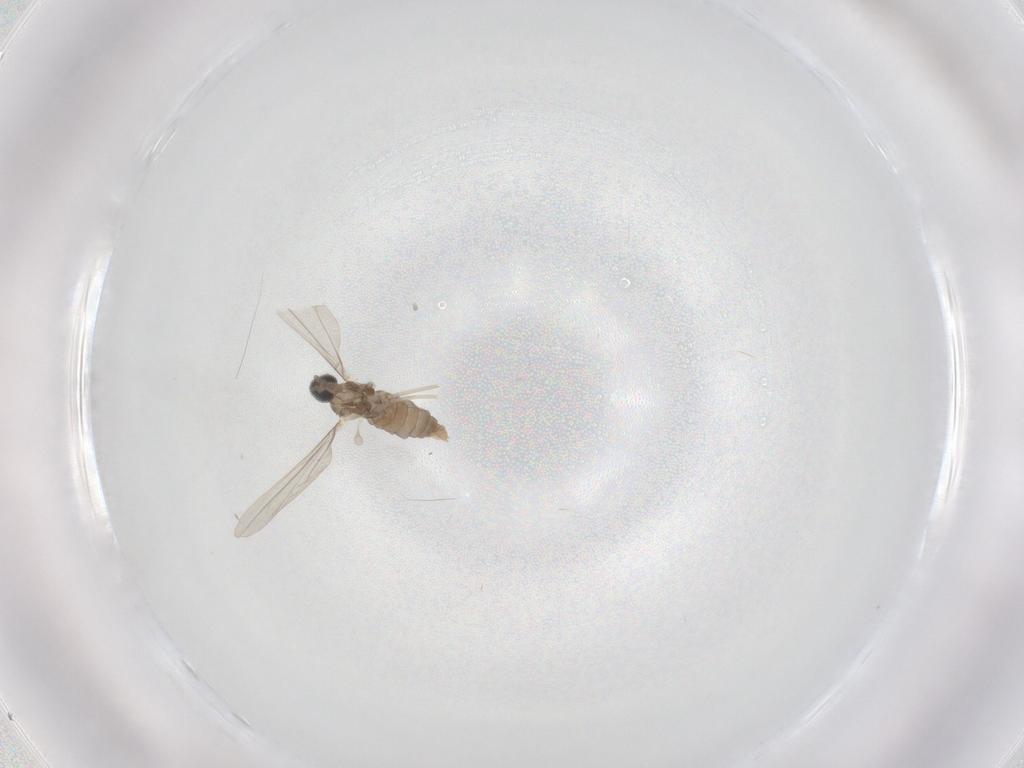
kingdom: Animalia
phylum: Arthropoda
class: Insecta
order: Diptera
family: Cecidomyiidae
